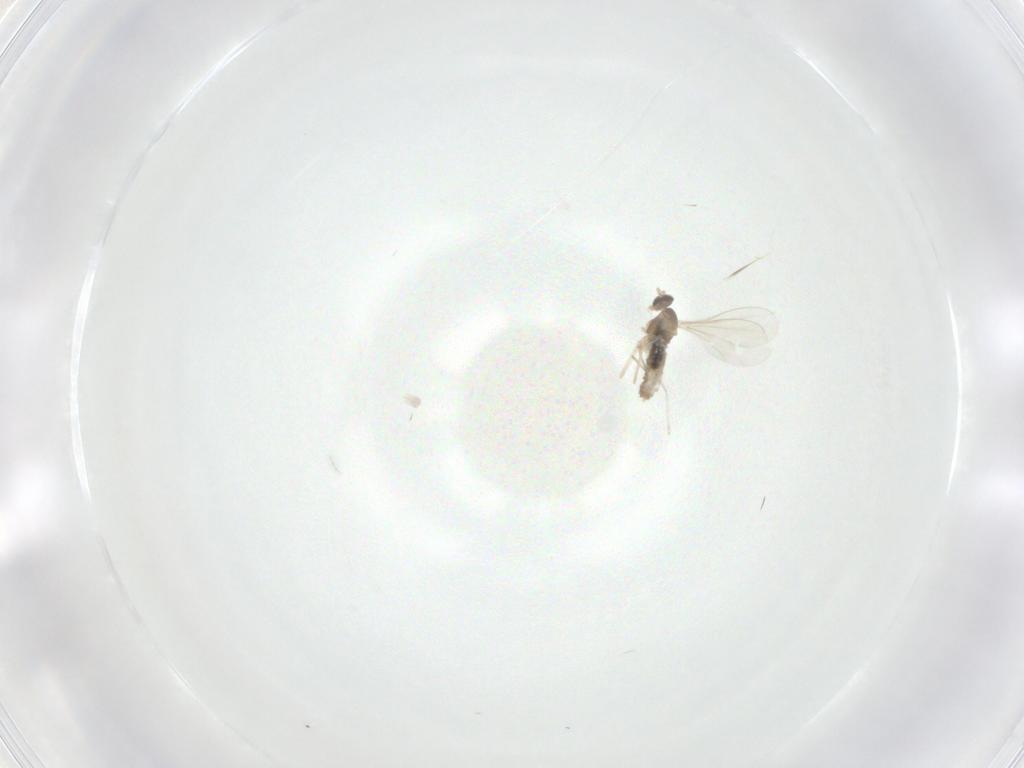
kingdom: Animalia
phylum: Arthropoda
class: Insecta
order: Diptera
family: Cecidomyiidae
